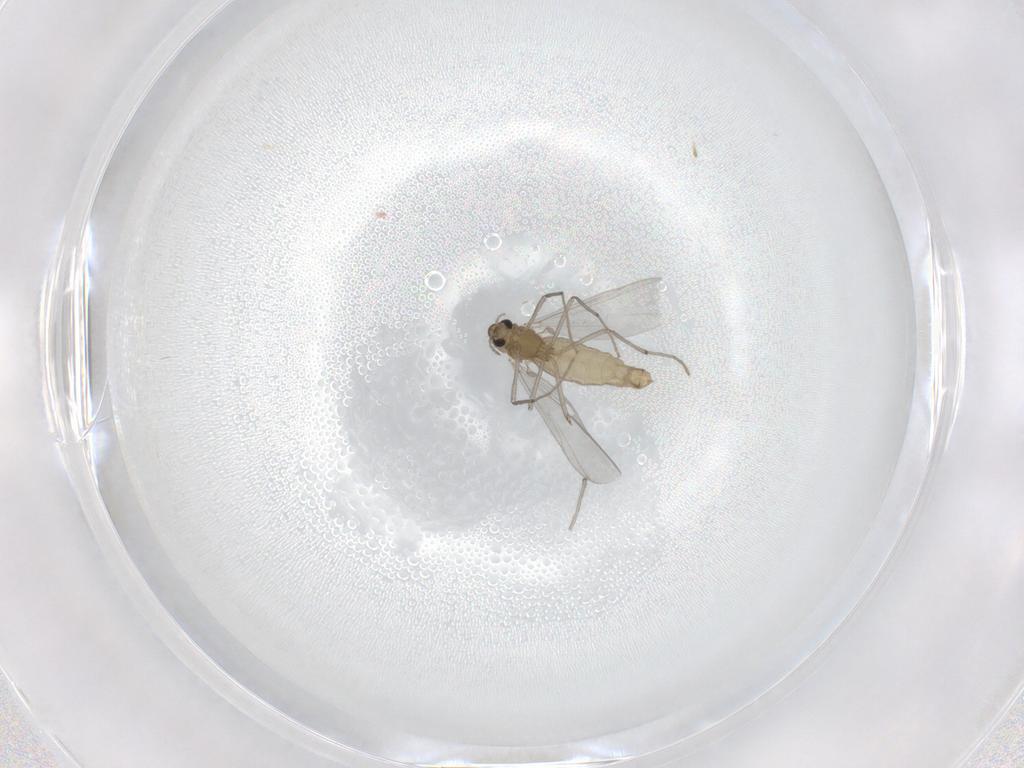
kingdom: Animalia
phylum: Arthropoda
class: Insecta
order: Diptera
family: Chironomidae
